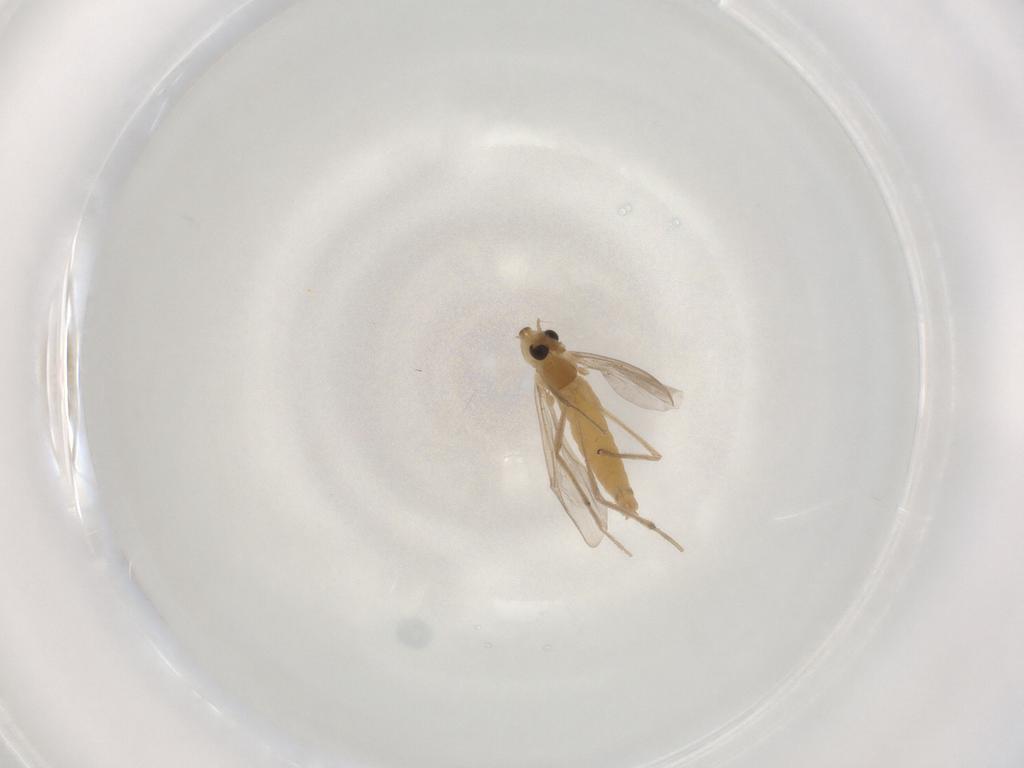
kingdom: Animalia
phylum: Arthropoda
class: Insecta
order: Diptera
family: Chironomidae
